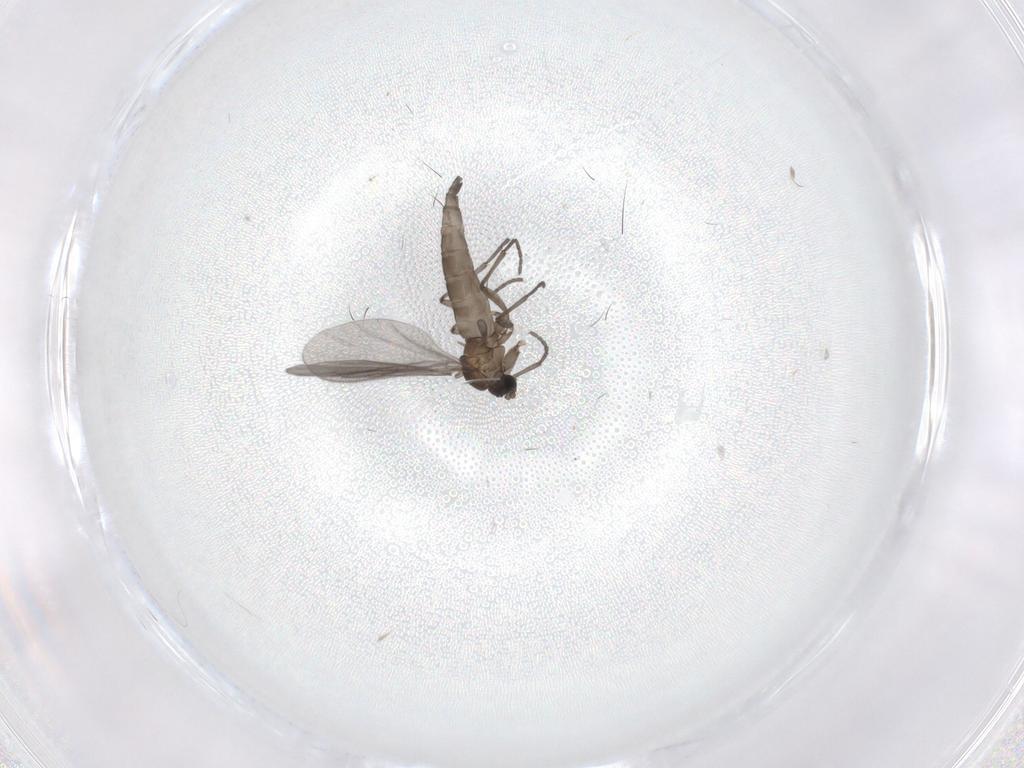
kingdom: Animalia
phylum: Arthropoda
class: Insecta
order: Diptera
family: Sciaridae
